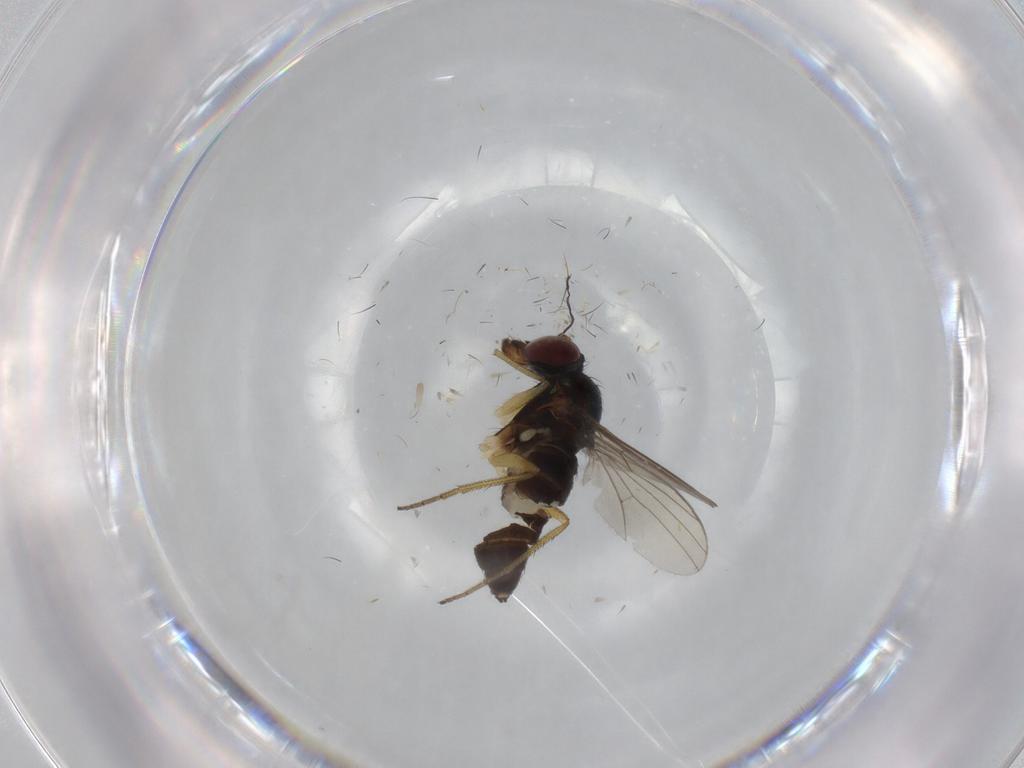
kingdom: Animalia
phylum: Arthropoda
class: Insecta
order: Diptera
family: Dolichopodidae
